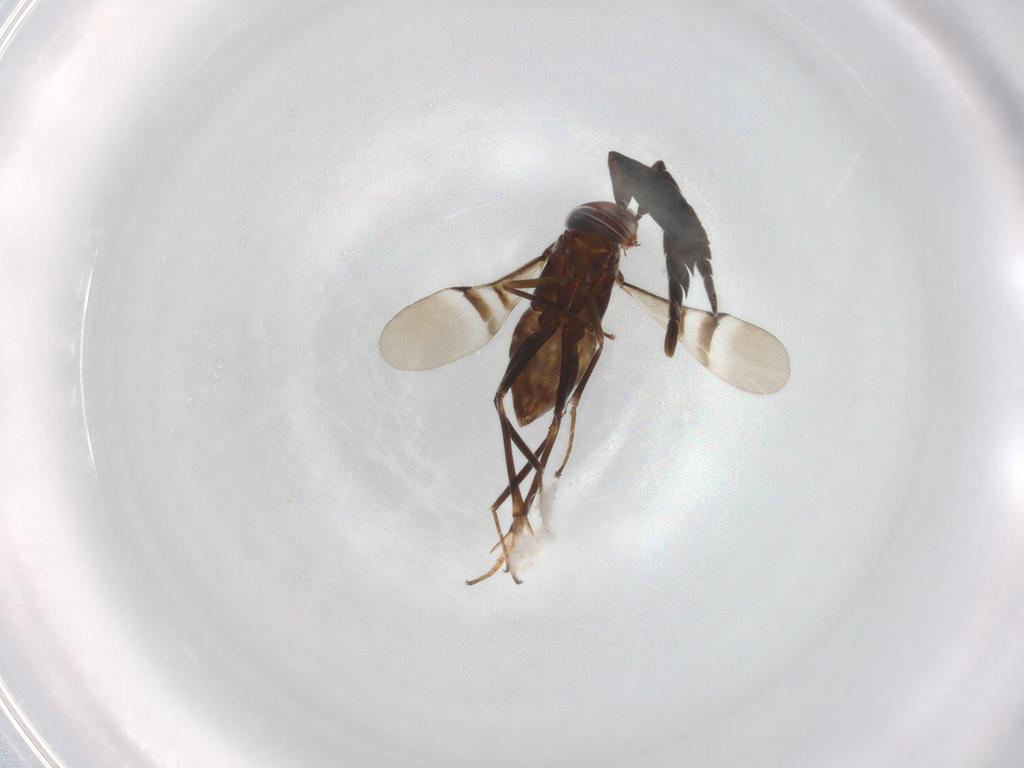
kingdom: Animalia
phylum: Arthropoda
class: Insecta
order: Hymenoptera
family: Encyrtidae
